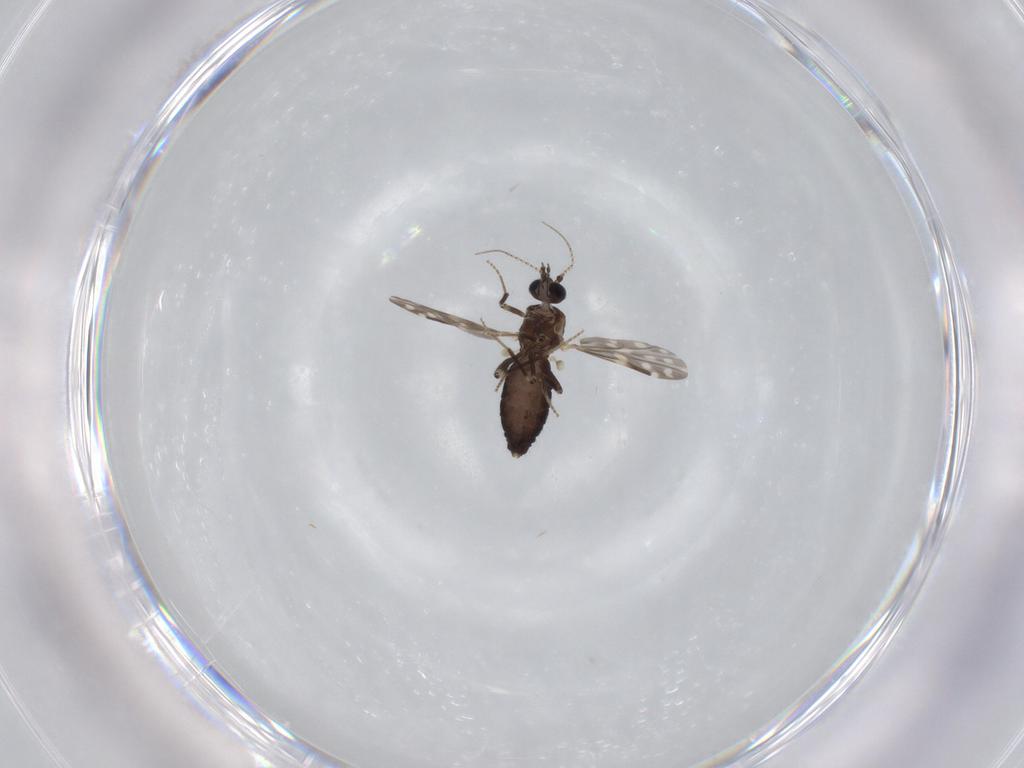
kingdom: Animalia
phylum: Arthropoda
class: Insecta
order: Diptera
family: Ceratopogonidae
